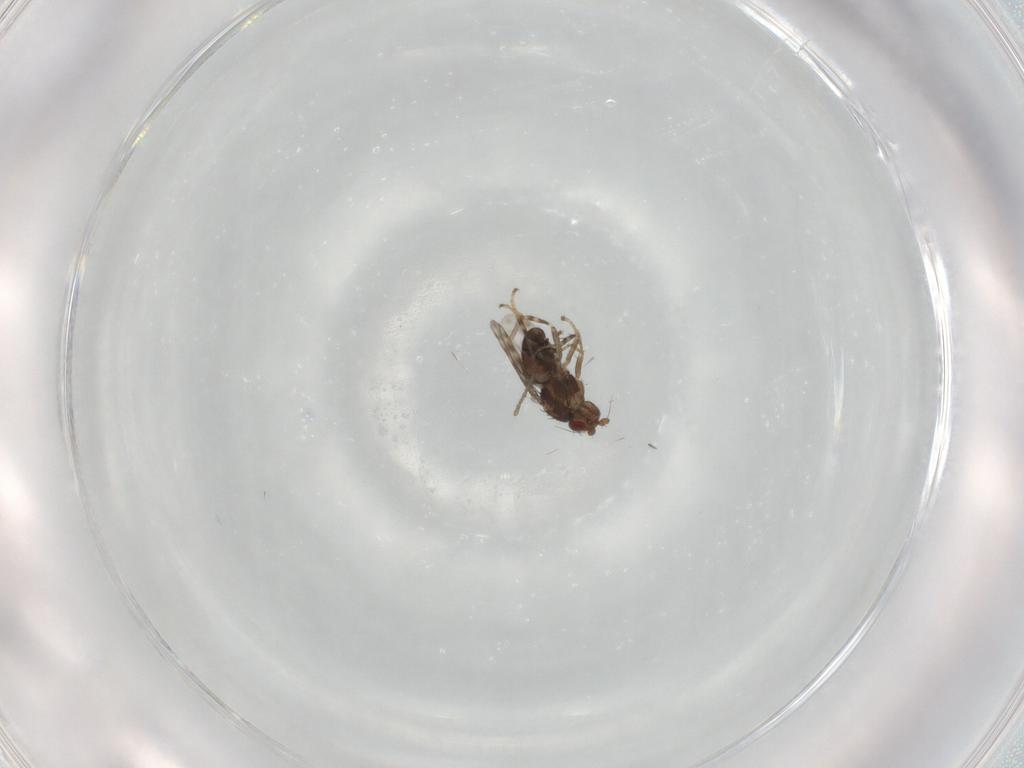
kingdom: Animalia
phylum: Arthropoda
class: Insecta
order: Diptera
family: Psychodidae
